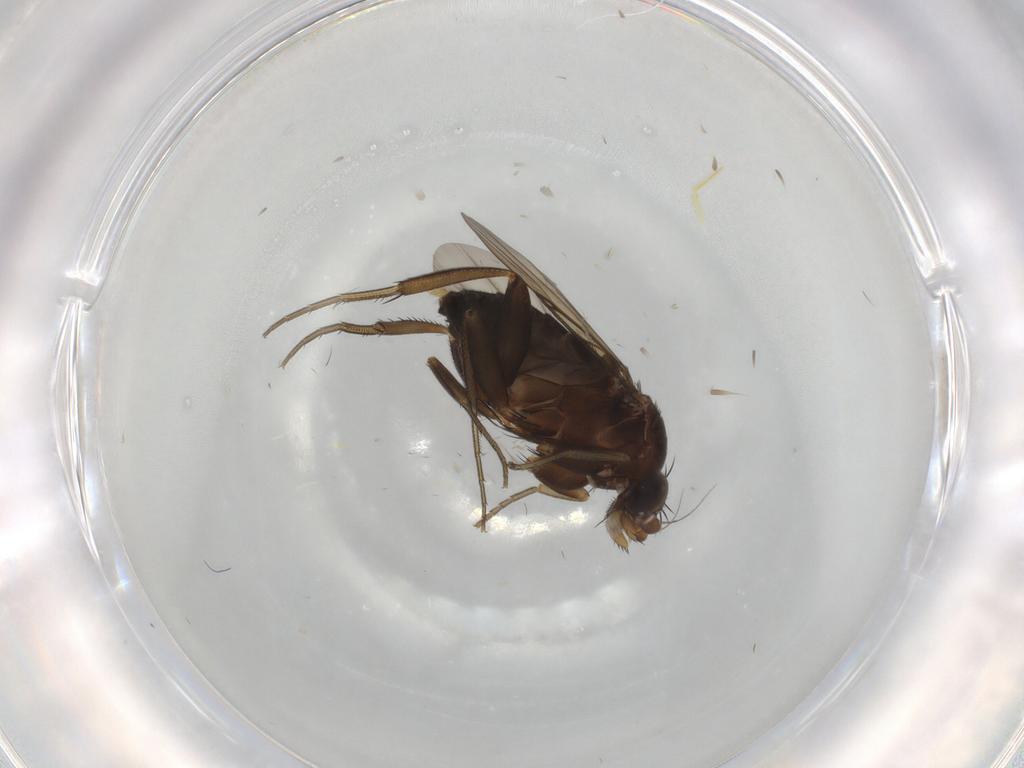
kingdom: Animalia
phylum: Arthropoda
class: Insecta
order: Diptera
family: Phoridae
